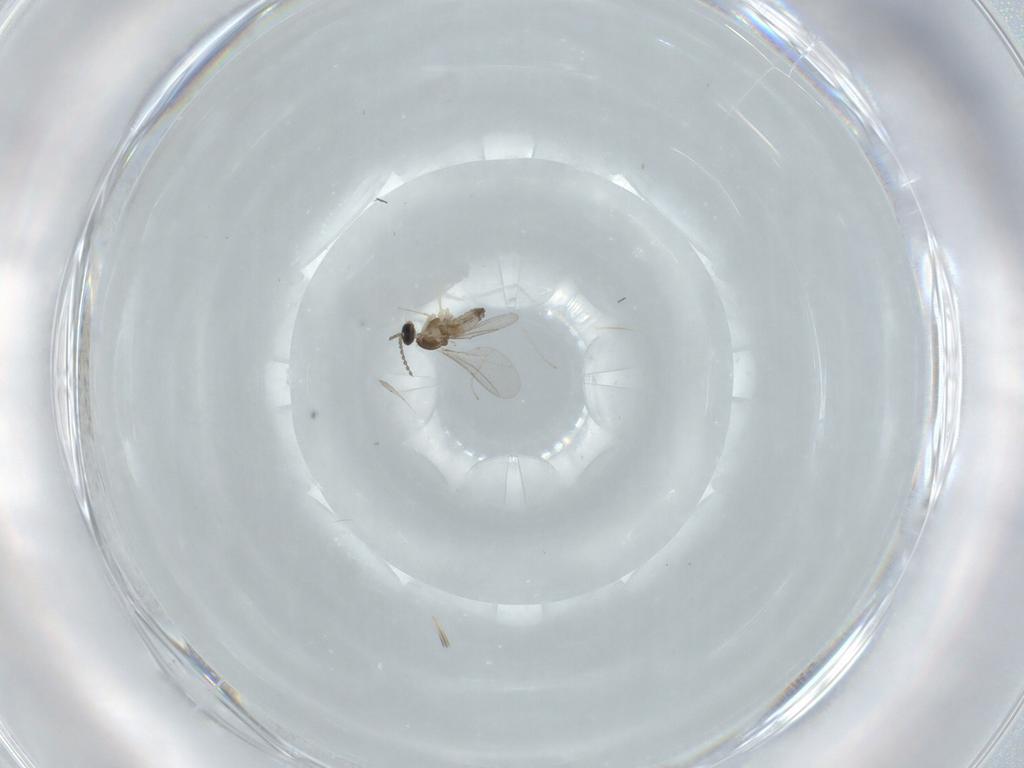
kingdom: Animalia
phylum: Arthropoda
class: Insecta
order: Diptera
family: Cecidomyiidae
